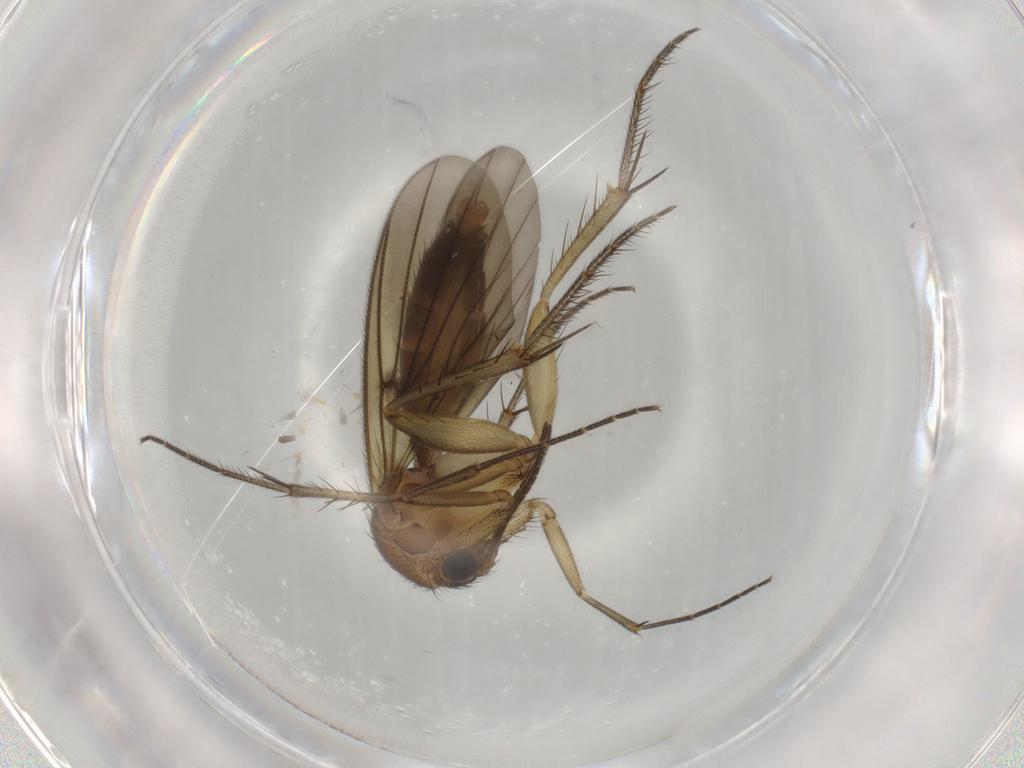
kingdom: Animalia
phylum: Arthropoda
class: Insecta
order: Diptera
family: Phoridae
